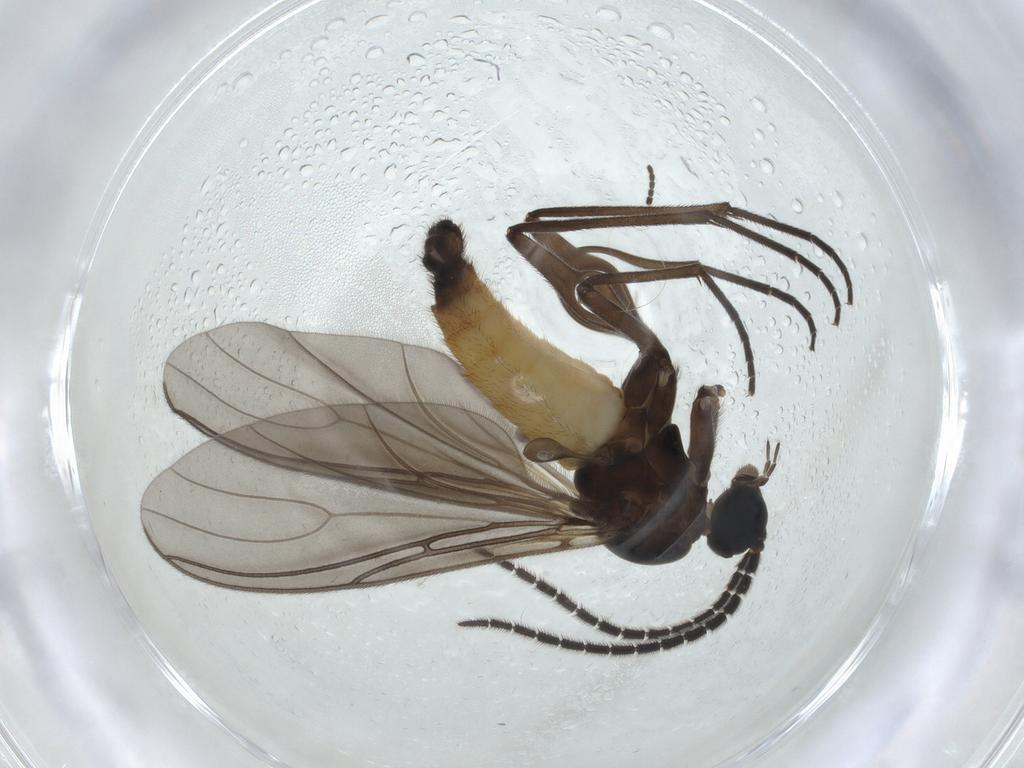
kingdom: Animalia
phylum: Arthropoda
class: Insecta
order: Diptera
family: Sciaridae
